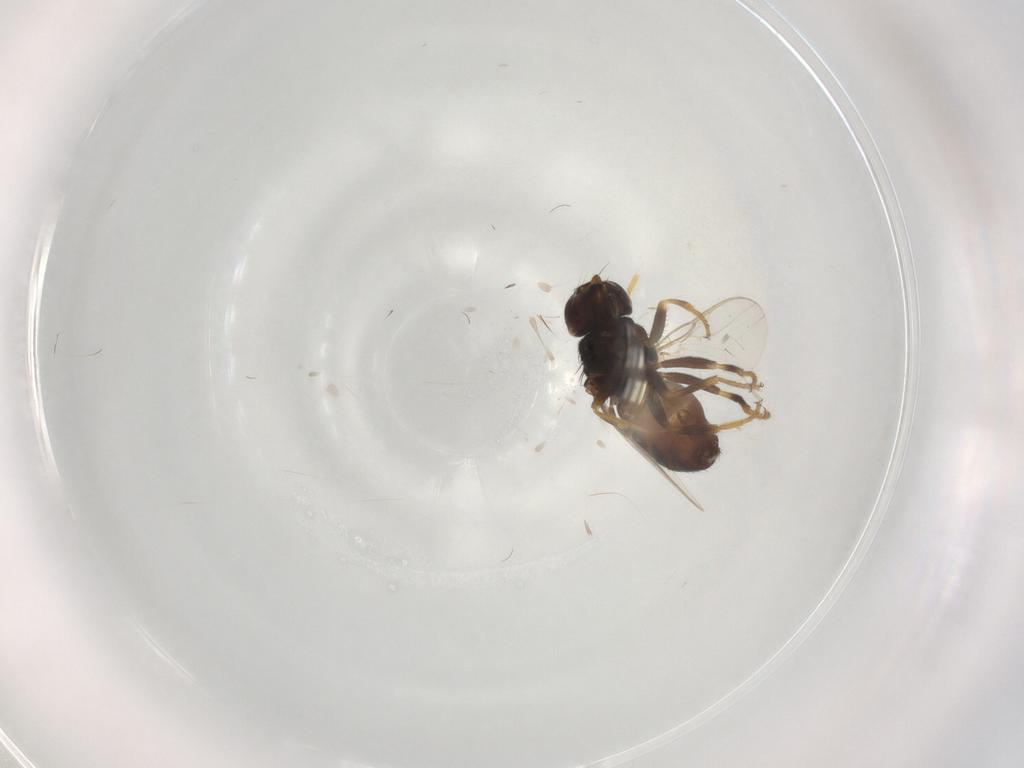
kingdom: Animalia
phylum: Arthropoda
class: Insecta
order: Diptera
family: Chloropidae
